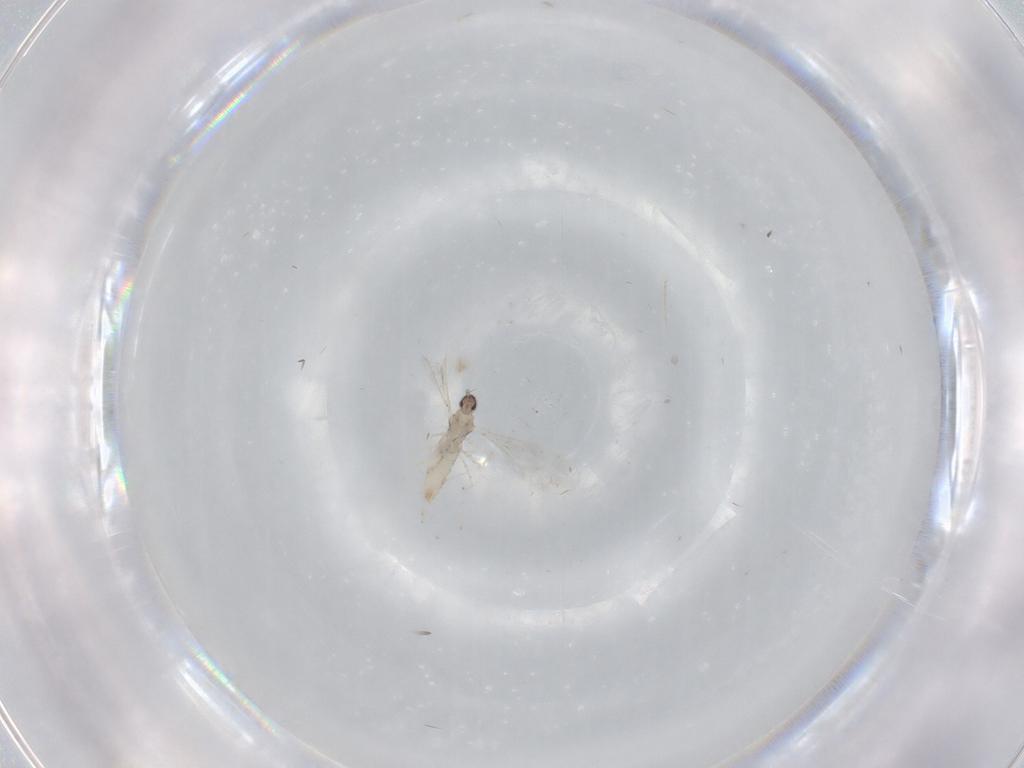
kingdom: Animalia
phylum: Arthropoda
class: Insecta
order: Diptera
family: Cecidomyiidae
